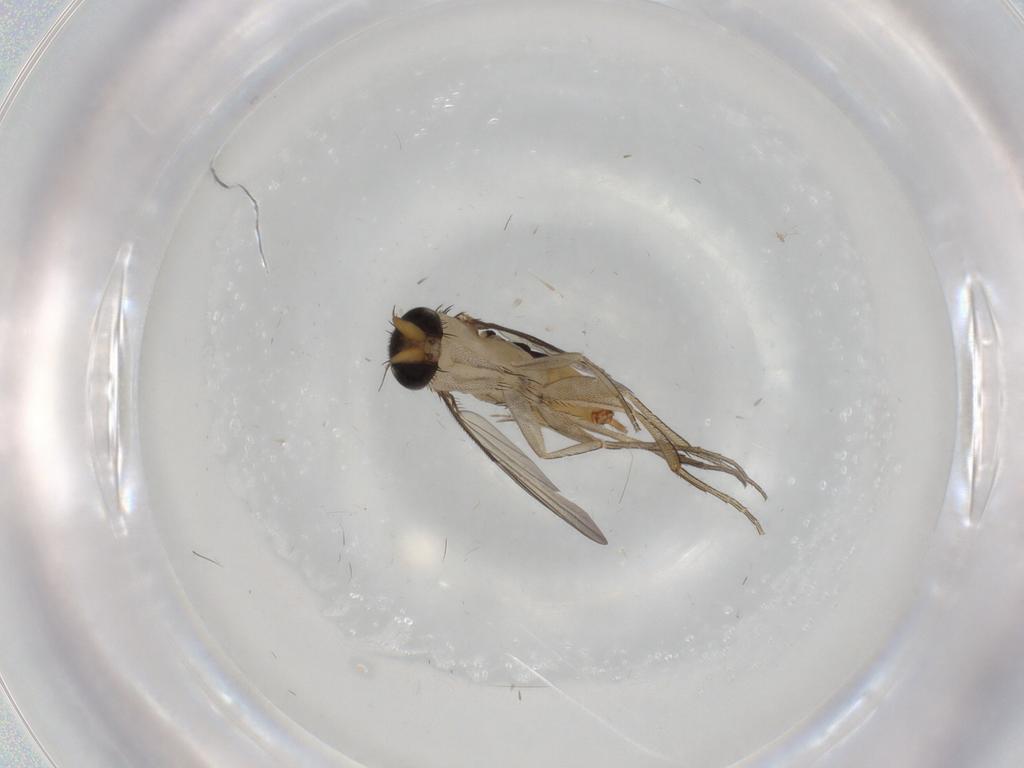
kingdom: Animalia
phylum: Arthropoda
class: Insecta
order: Diptera
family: Phoridae
